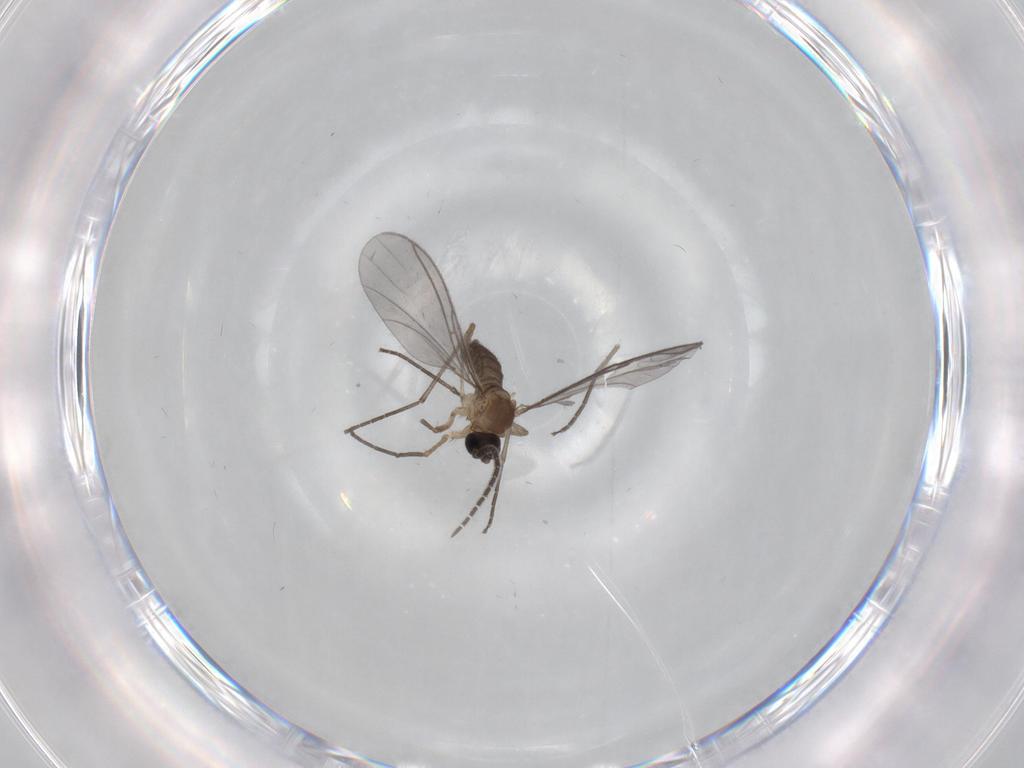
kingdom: Animalia
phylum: Arthropoda
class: Insecta
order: Diptera
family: Sciaridae
